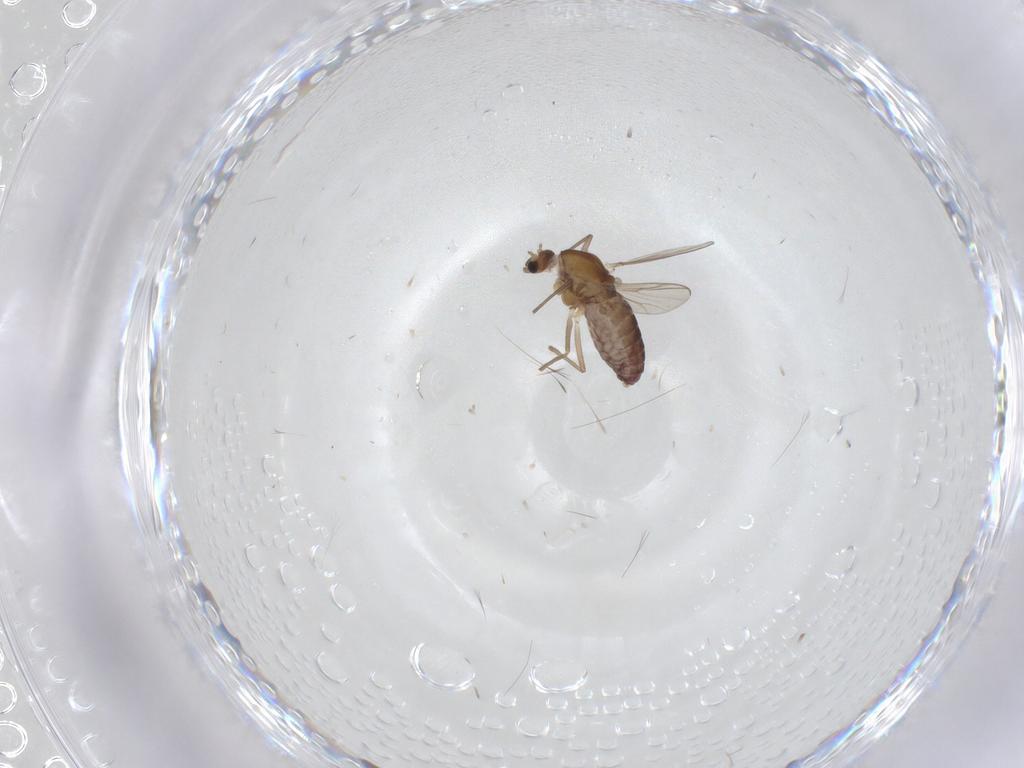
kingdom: Animalia
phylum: Arthropoda
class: Insecta
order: Diptera
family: Chironomidae
